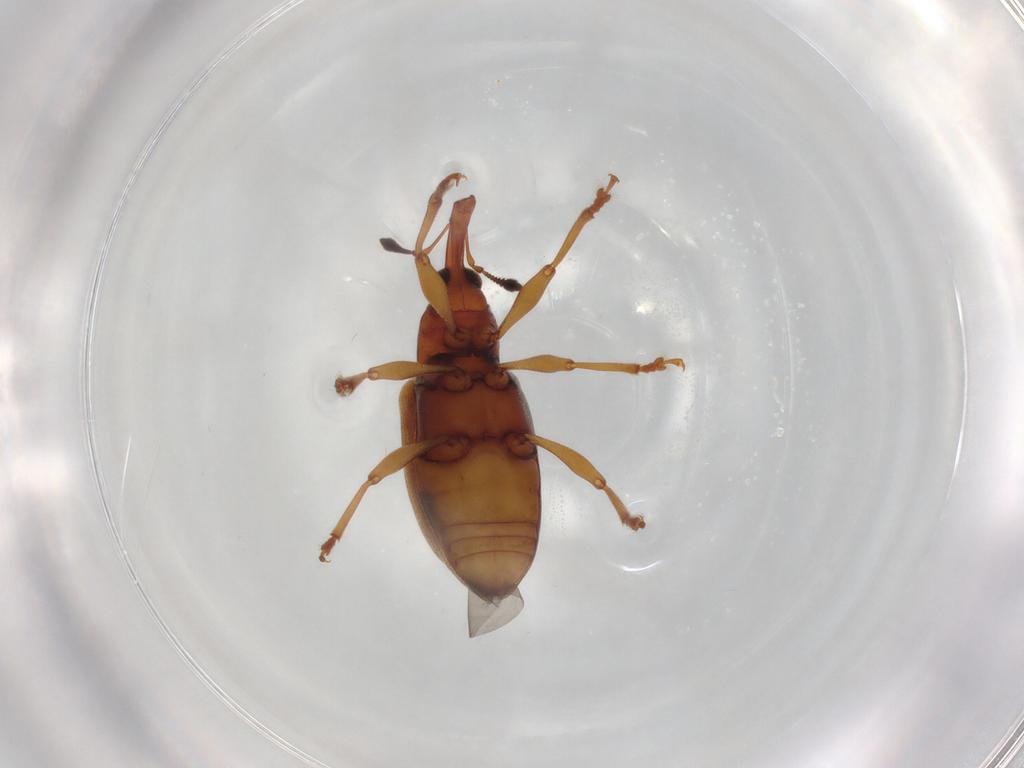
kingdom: Animalia
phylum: Arthropoda
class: Insecta
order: Coleoptera
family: Curculionidae
